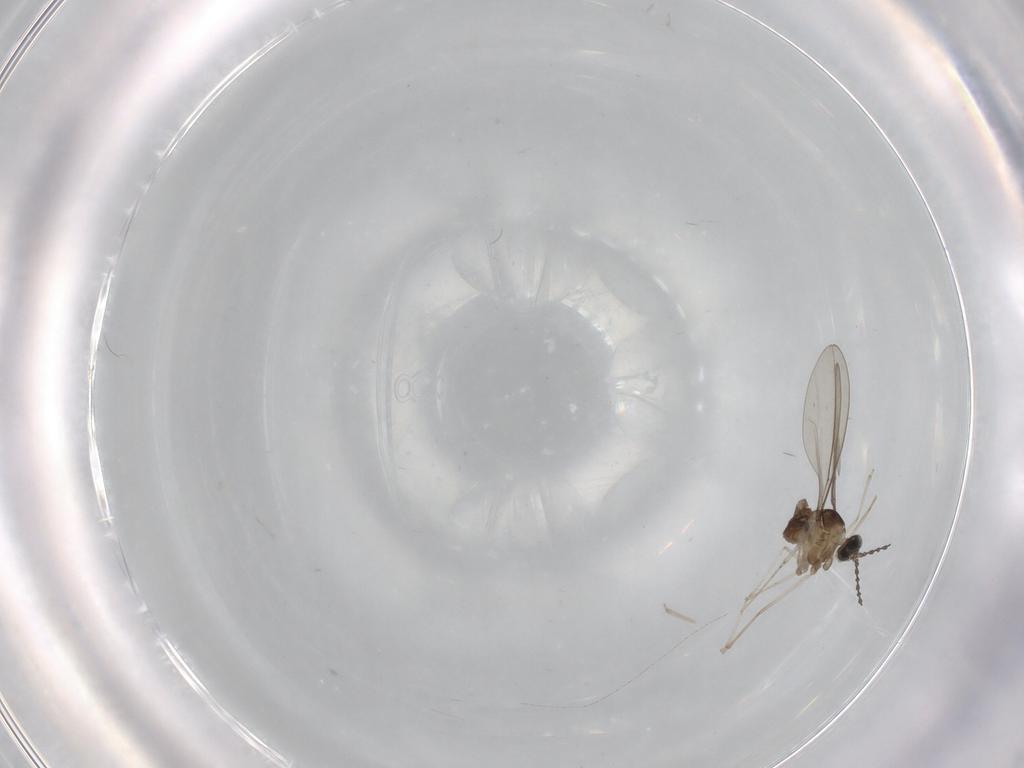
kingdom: Animalia
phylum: Arthropoda
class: Insecta
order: Diptera
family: Cecidomyiidae
